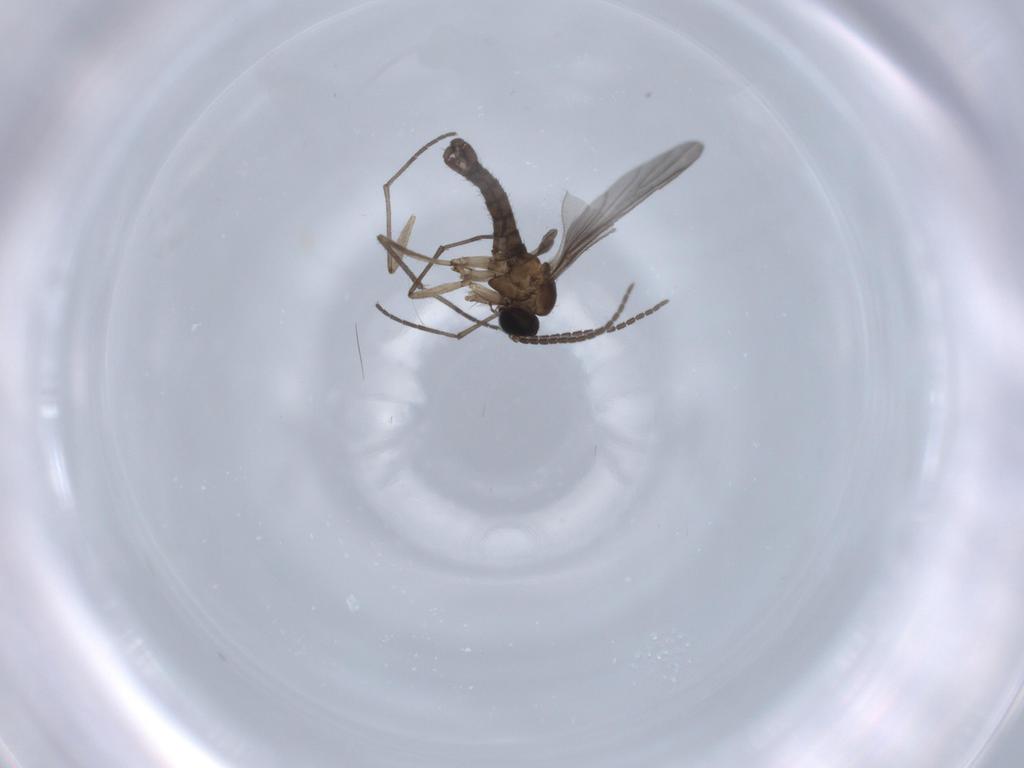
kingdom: Animalia
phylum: Arthropoda
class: Insecta
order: Diptera
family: Sciaridae
